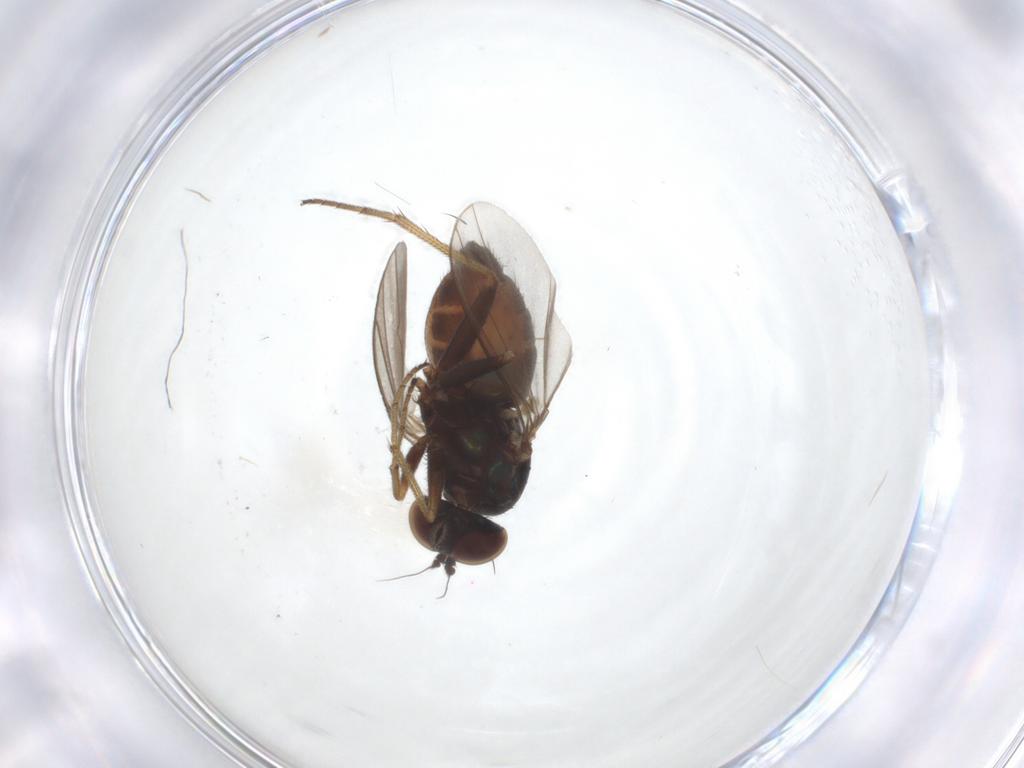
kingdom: Animalia
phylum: Arthropoda
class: Insecta
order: Diptera
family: Dolichopodidae
